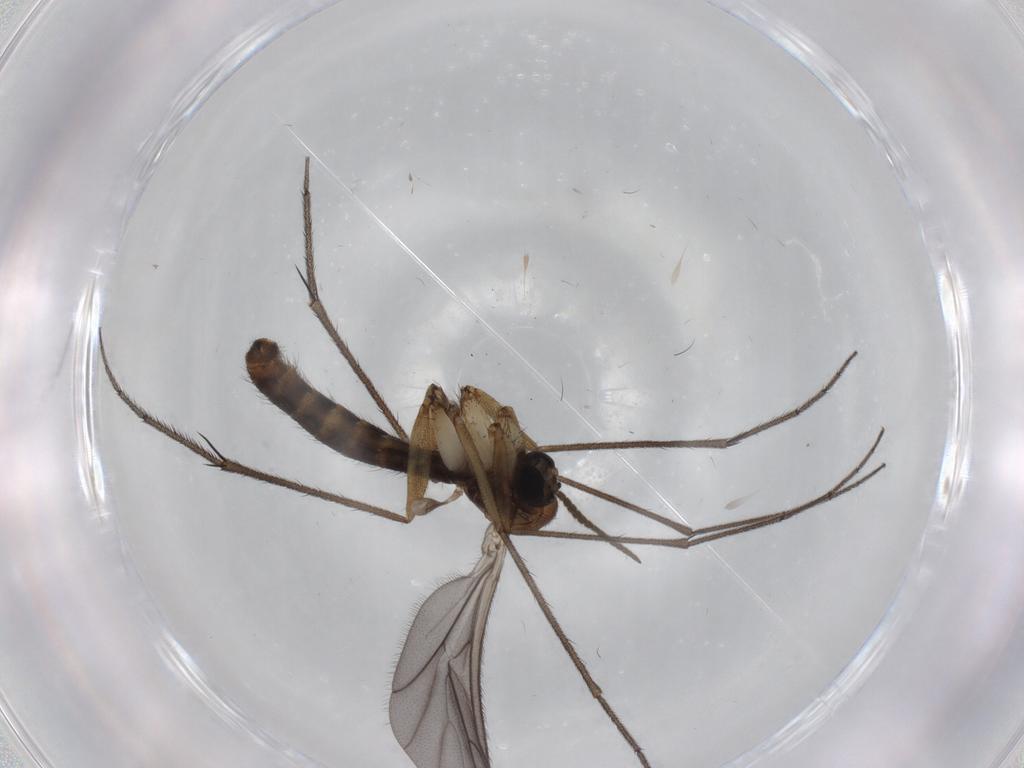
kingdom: Animalia
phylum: Arthropoda
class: Insecta
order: Diptera
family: Ditomyiidae
